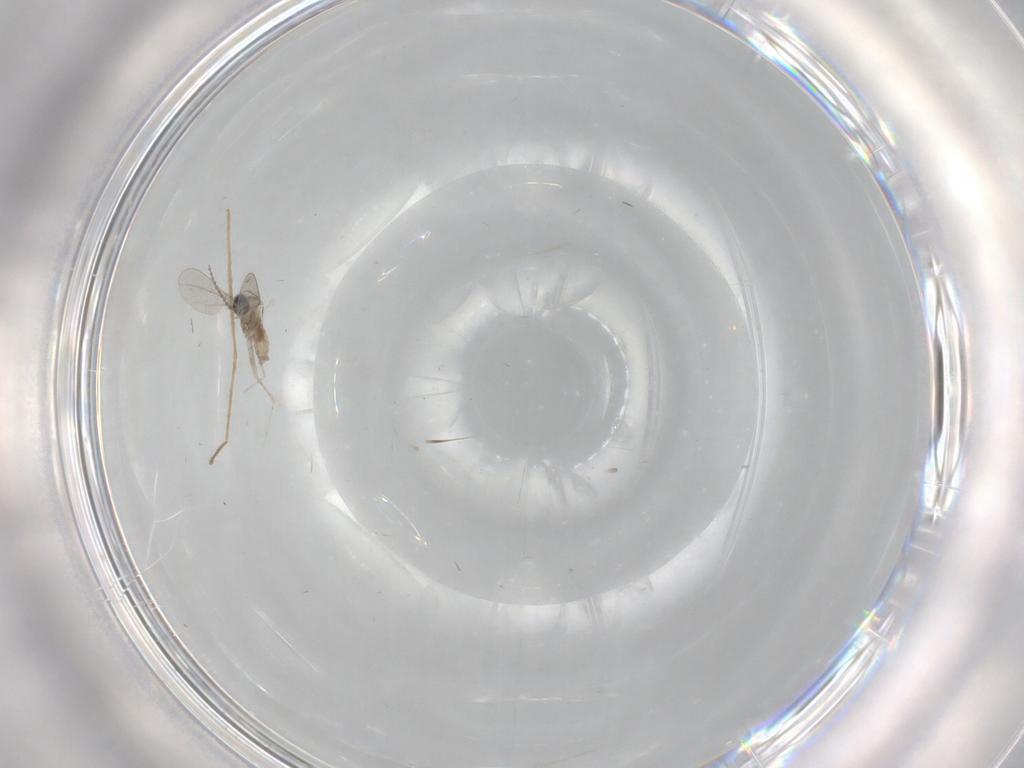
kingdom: Animalia
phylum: Arthropoda
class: Insecta
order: Diptera
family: Chironomidae
